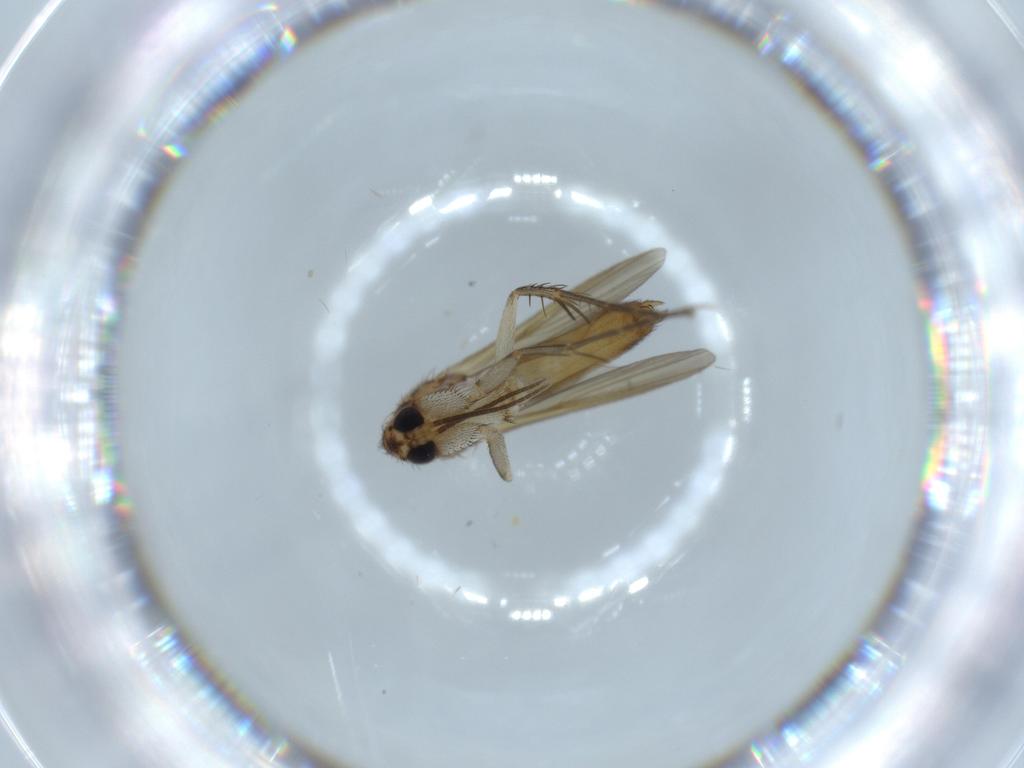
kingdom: Animalia
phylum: Arthropoda
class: Insecta
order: Diptera
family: Cecidomyiidae
